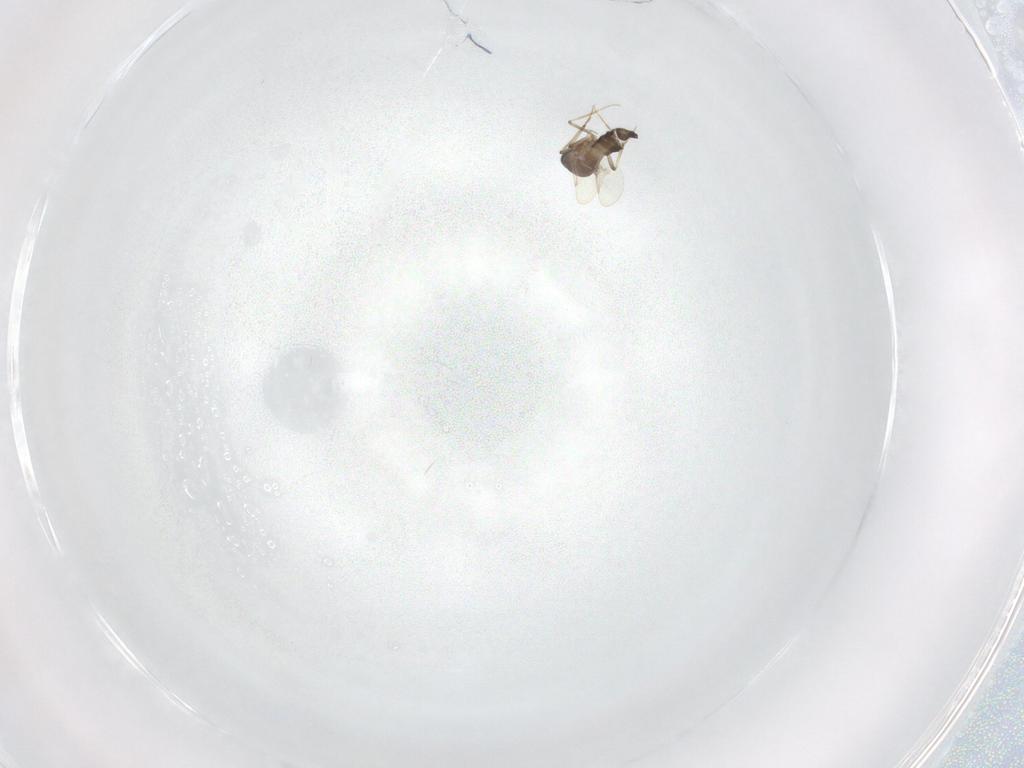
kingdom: Animalia
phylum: Arthropoda
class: Insecta
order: Diptera
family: Ceratopogonidae
